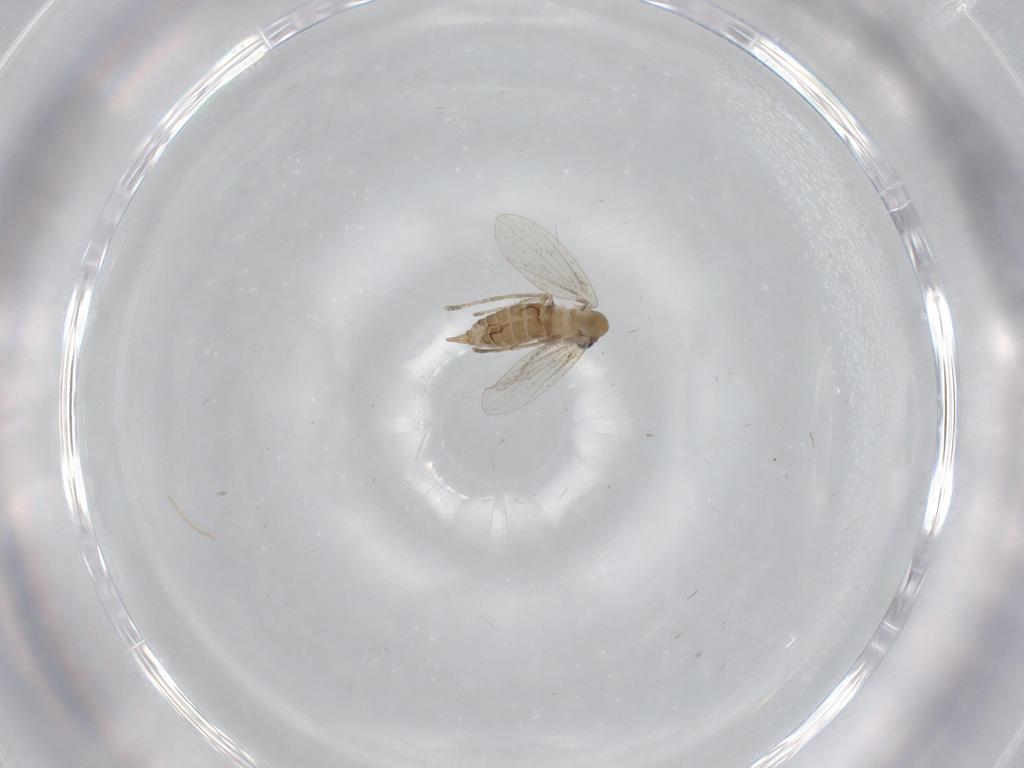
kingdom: Animalia
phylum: Arthropoda
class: Insecta
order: Diptera
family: Psychodidae
